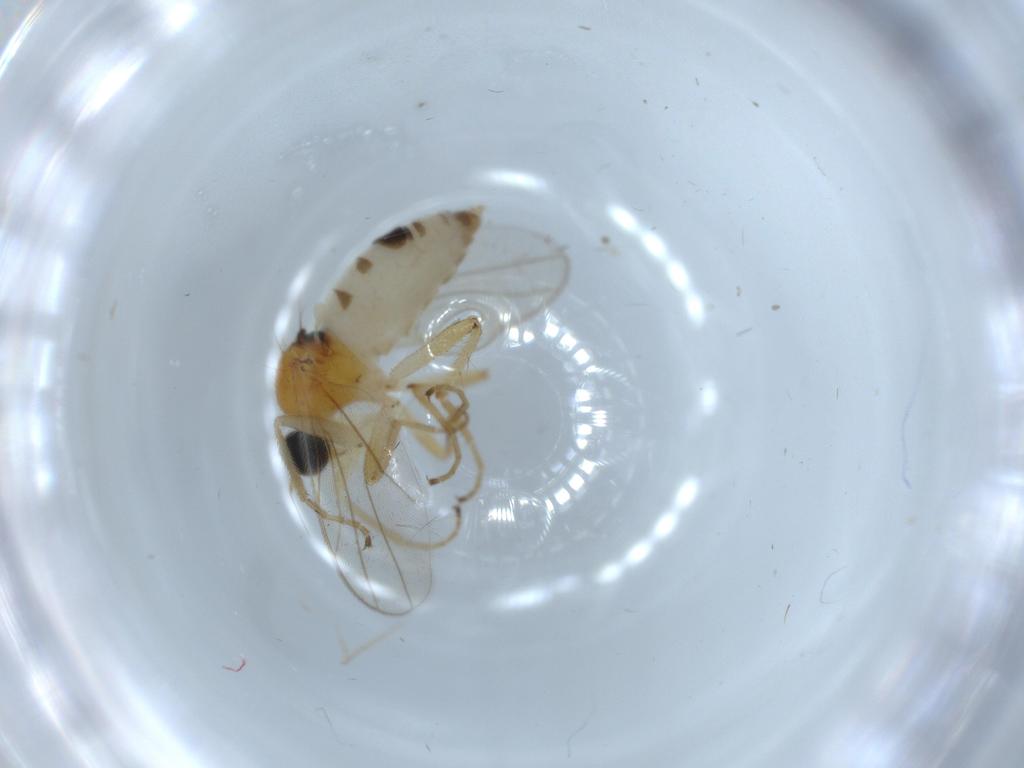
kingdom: Animalia
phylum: Arthropoda
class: Insecta
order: Diptera
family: Hybotidae
